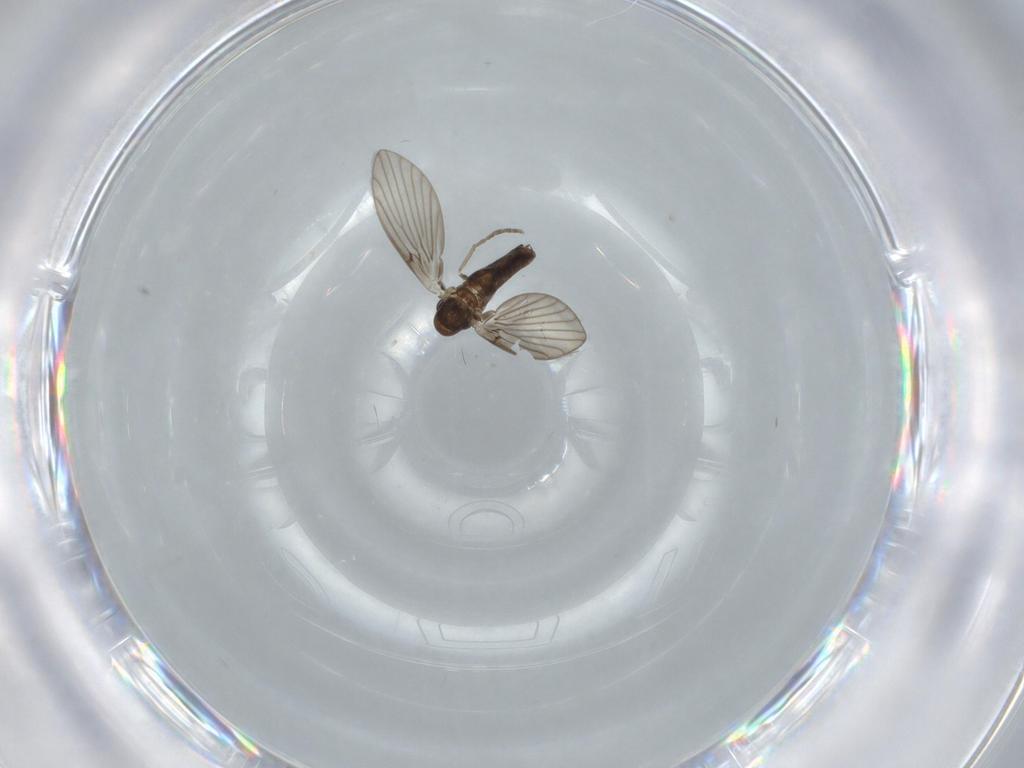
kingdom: Animalia
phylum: Arthropoda
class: Insecta
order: Diptera
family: Psychodidae
